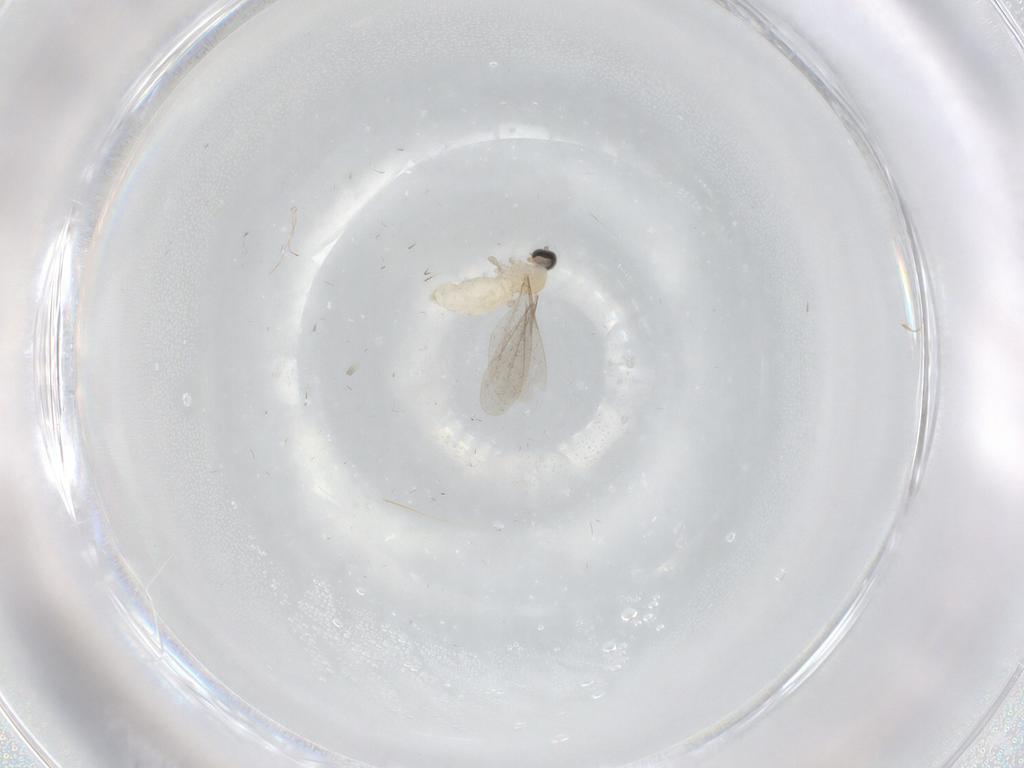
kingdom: Animalia
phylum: Arthropoda
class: Insecta
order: Diptera
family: Cecidomyiidae
